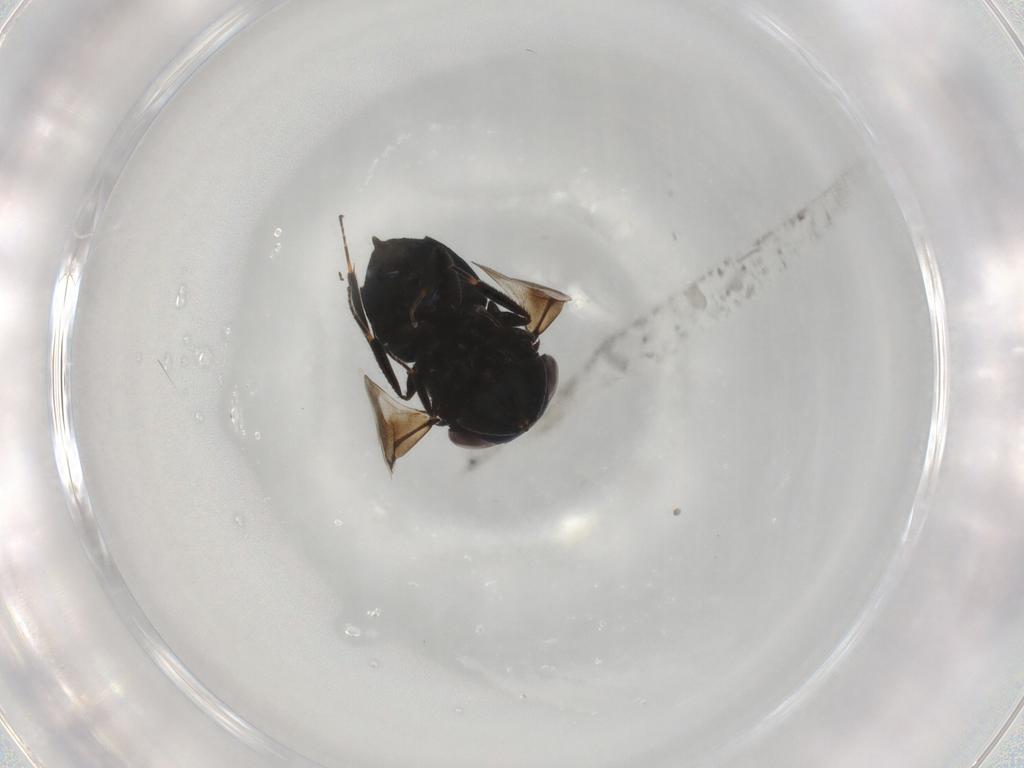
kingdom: Animalia
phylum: Arthropoda
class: Insecta
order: Hymenoptera
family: Eunotidae
